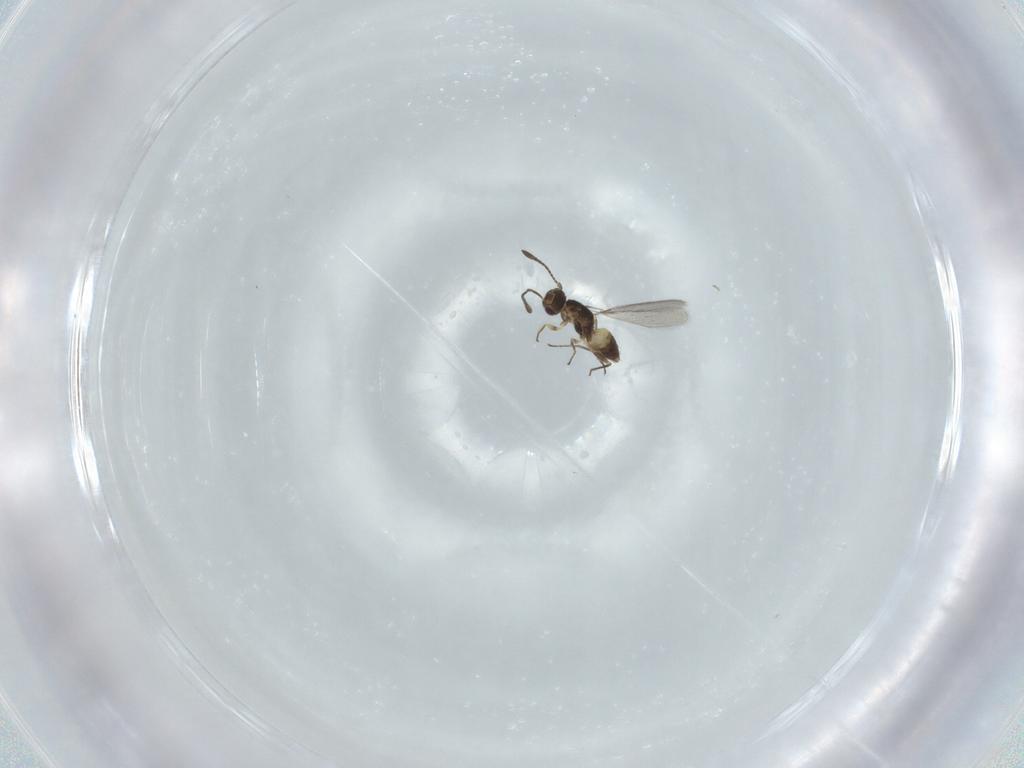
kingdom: Animalia
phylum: Arthropoda
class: Insecta
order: Hymenoptera
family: Mymaridae
